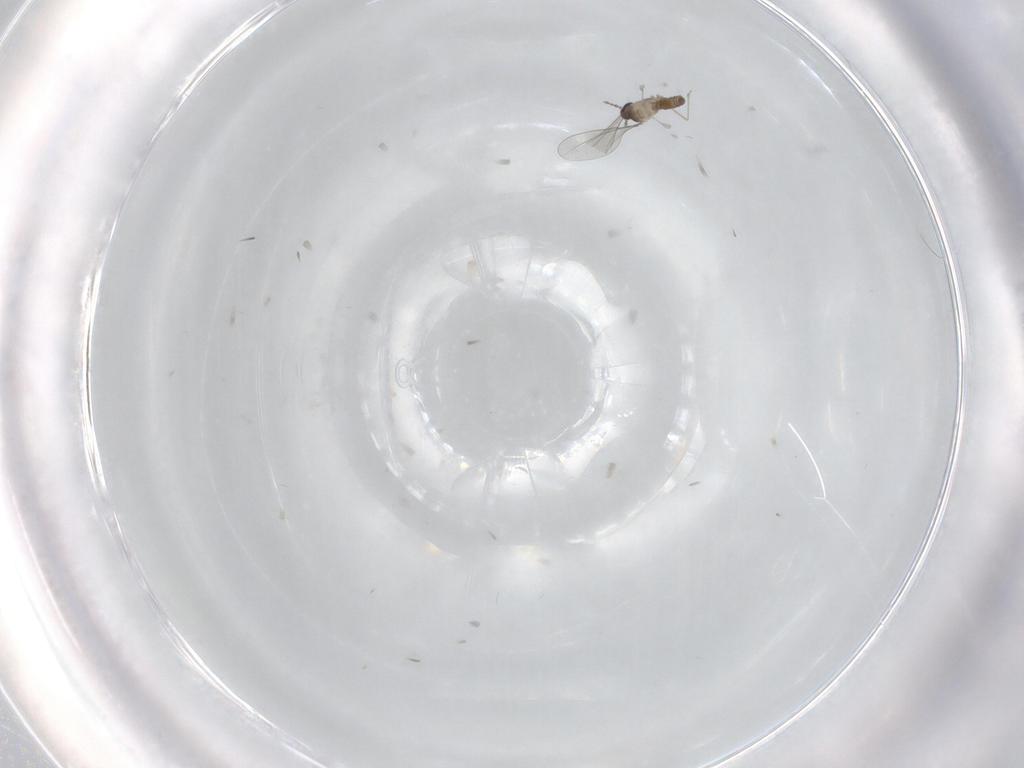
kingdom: Animalia
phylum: Arthropoda
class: Insecta
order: Diptera
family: Cecidomyiidae
